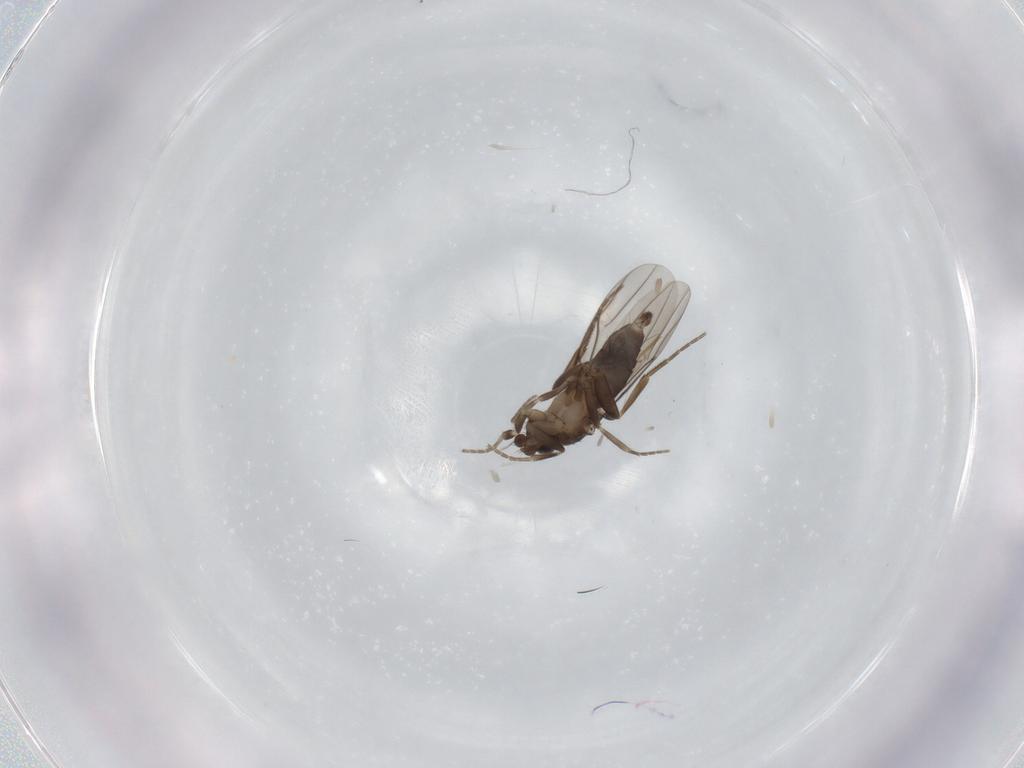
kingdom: Animalia
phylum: Arthropoda
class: Insecta
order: Diptera
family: Phoridae
